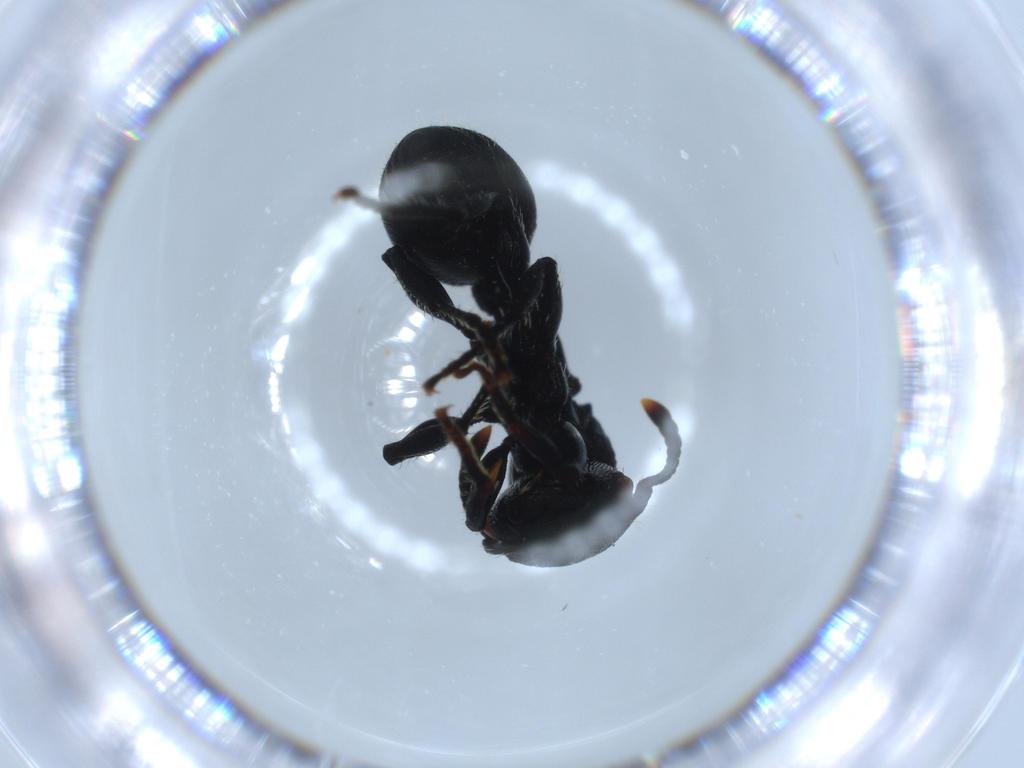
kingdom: Animalia
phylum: Arthropoda
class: Insecta
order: Hymenoptera
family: Formicidae
